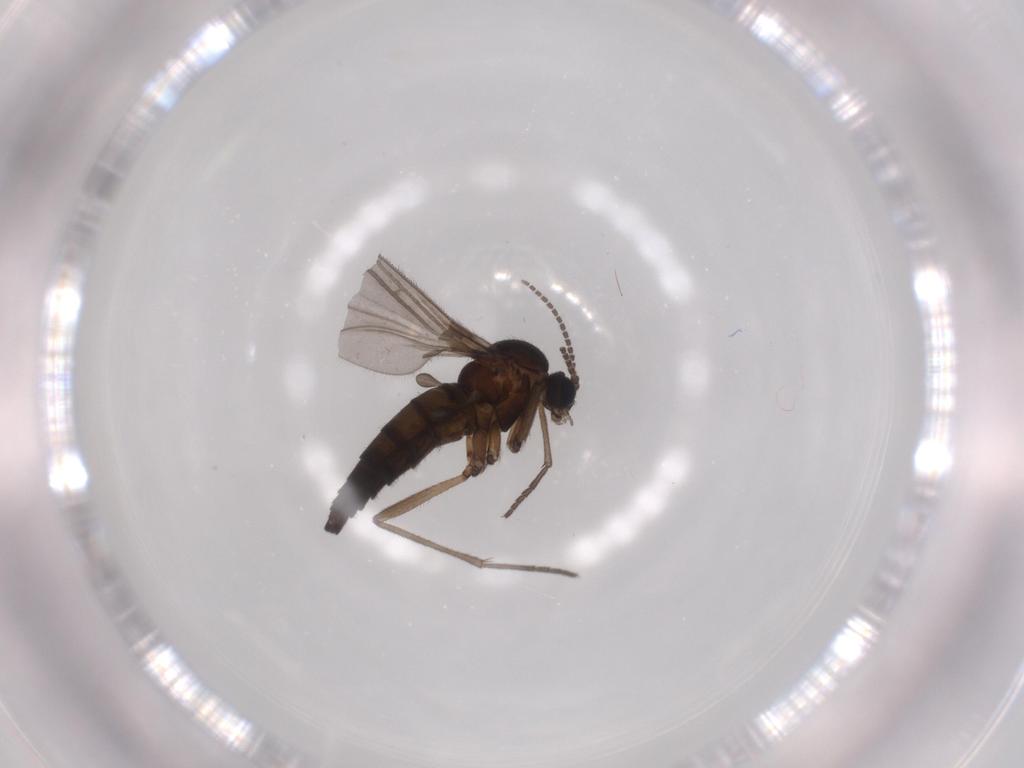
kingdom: Animalia
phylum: Arthropoda
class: Insecta
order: Diptera
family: Sciaridae
